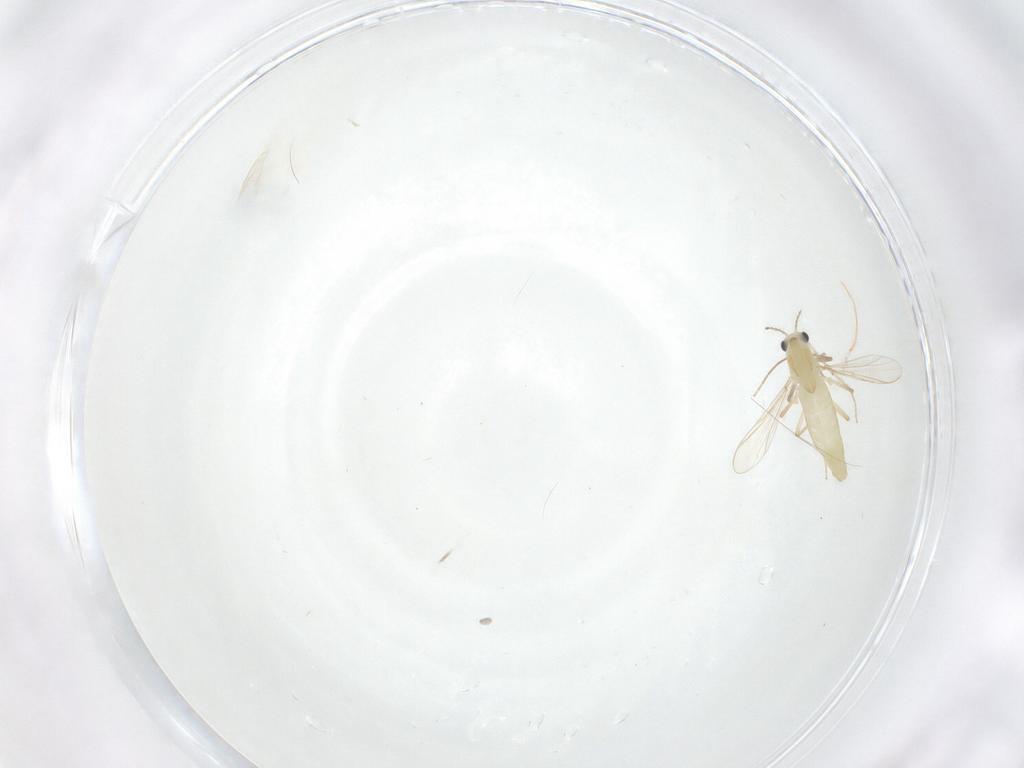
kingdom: Animalia
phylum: Arthropoda
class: Insecta
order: Diptera
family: Chironomidae
